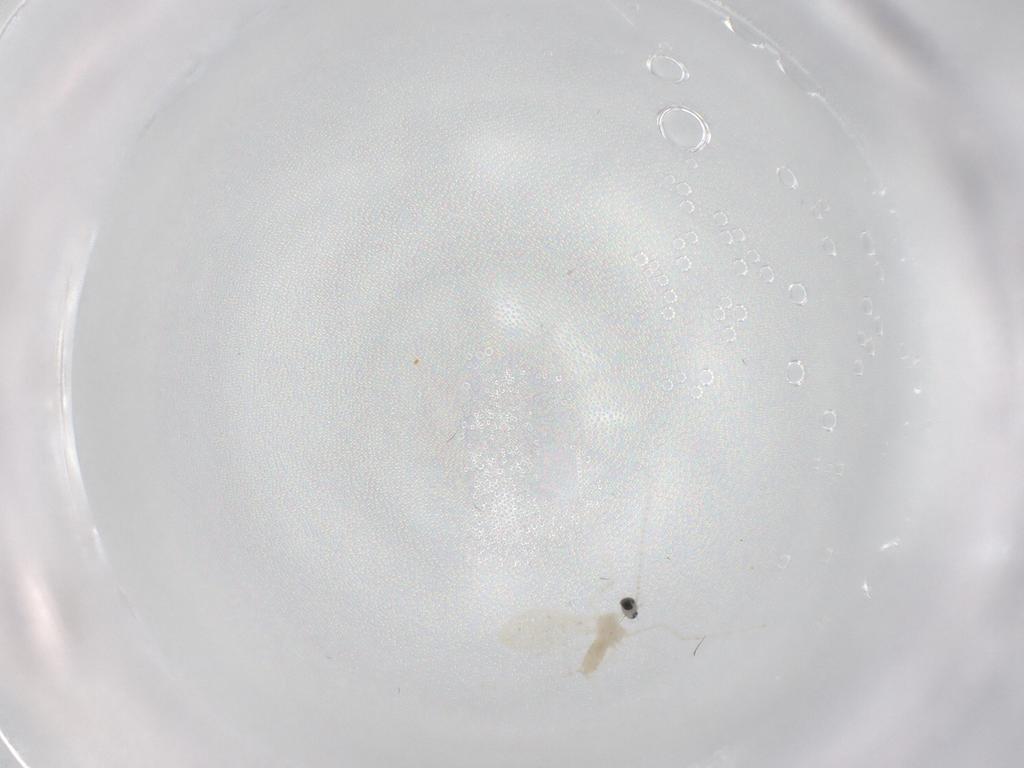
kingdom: Animalia
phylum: Arthropoda
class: Insecta
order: Diptera
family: Cecidomyiidae
